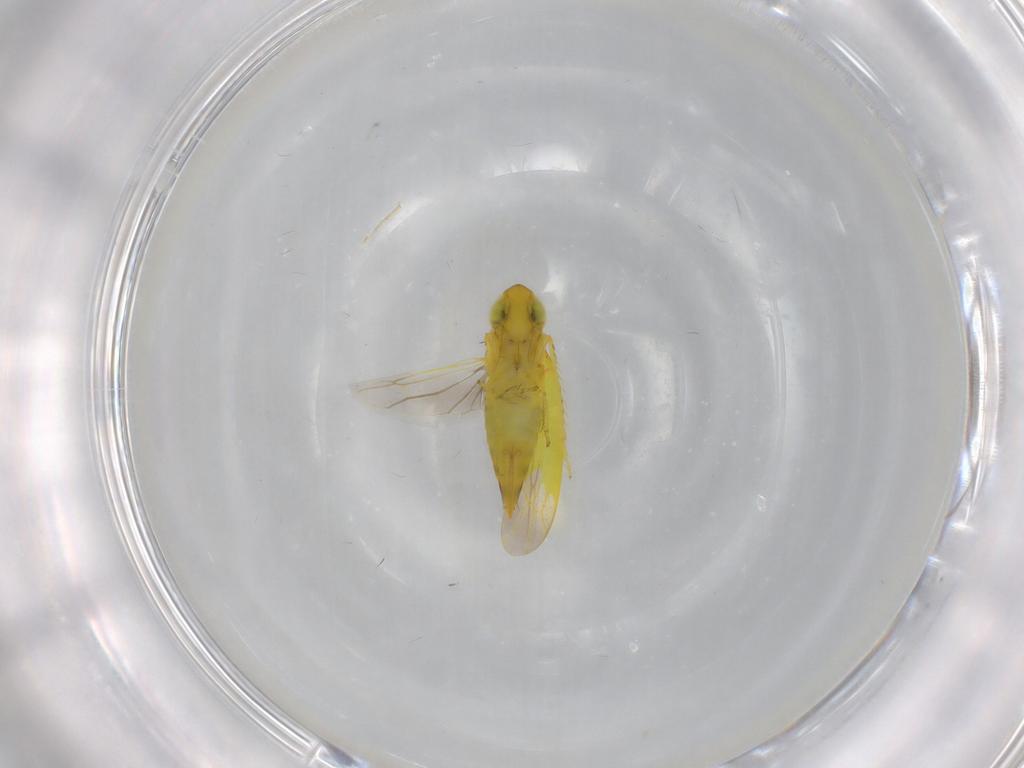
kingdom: Animalia
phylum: Arthropoda
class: Insecta
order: Hemiptera
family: Cicadellidae
